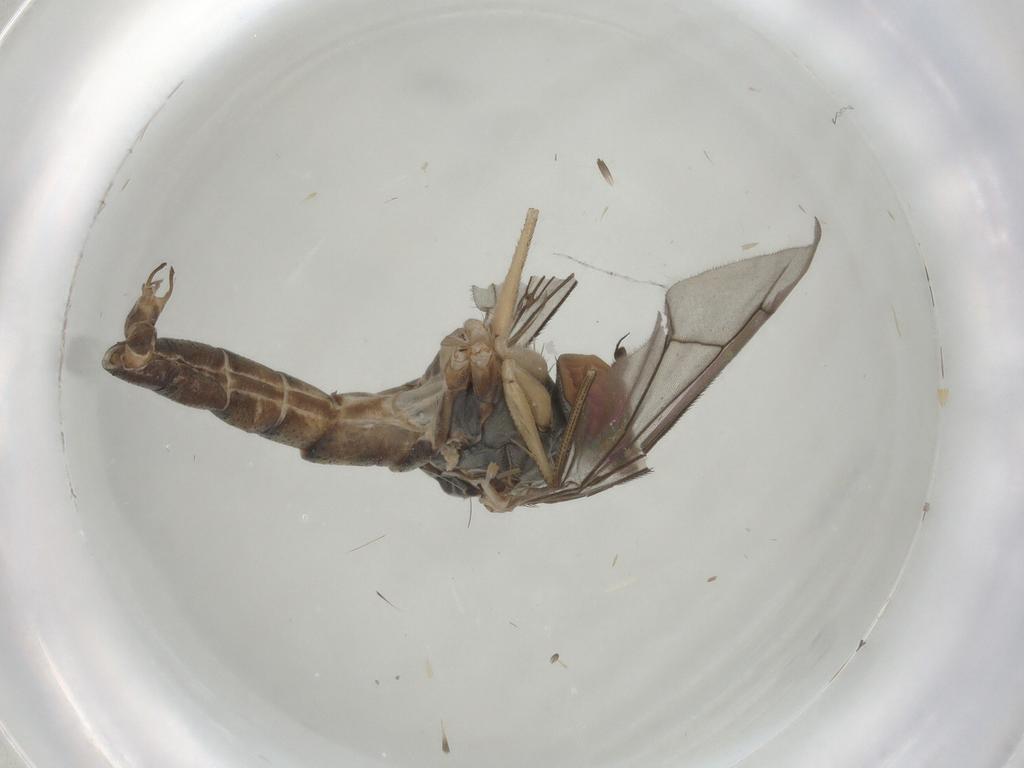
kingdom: Animalia
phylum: Arthropoda
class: Insecta
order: Diptera
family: Dolichopodidae
